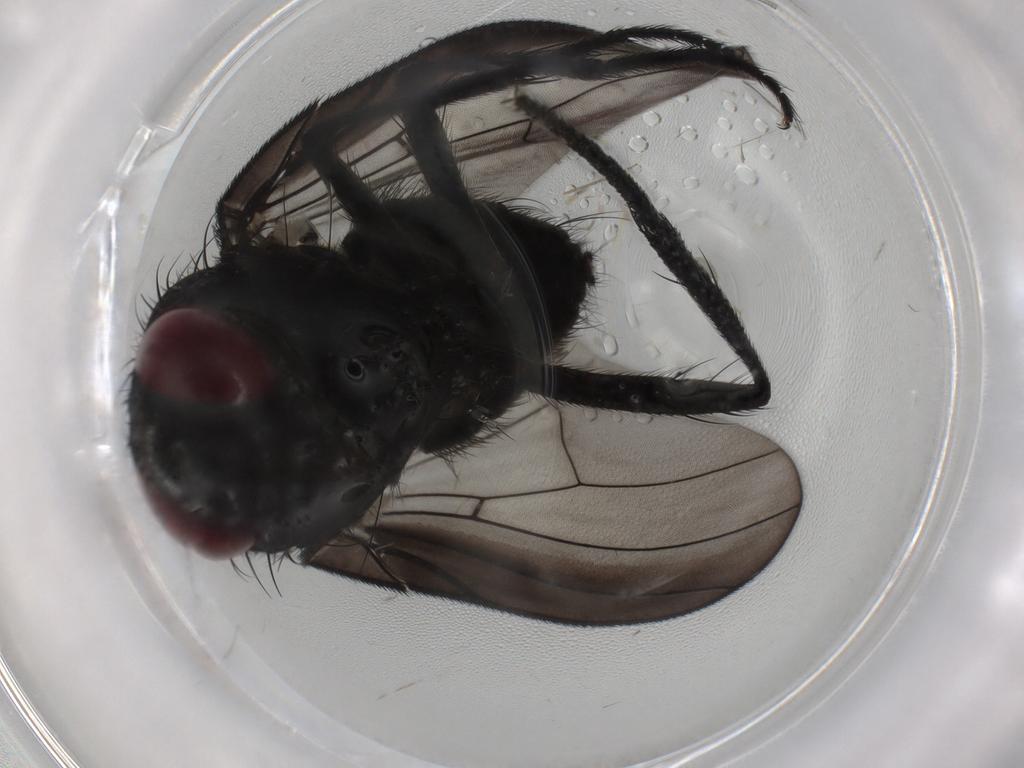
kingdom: Animalia
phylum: Arthropoda
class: Insecta
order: Diptera
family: Fannia
